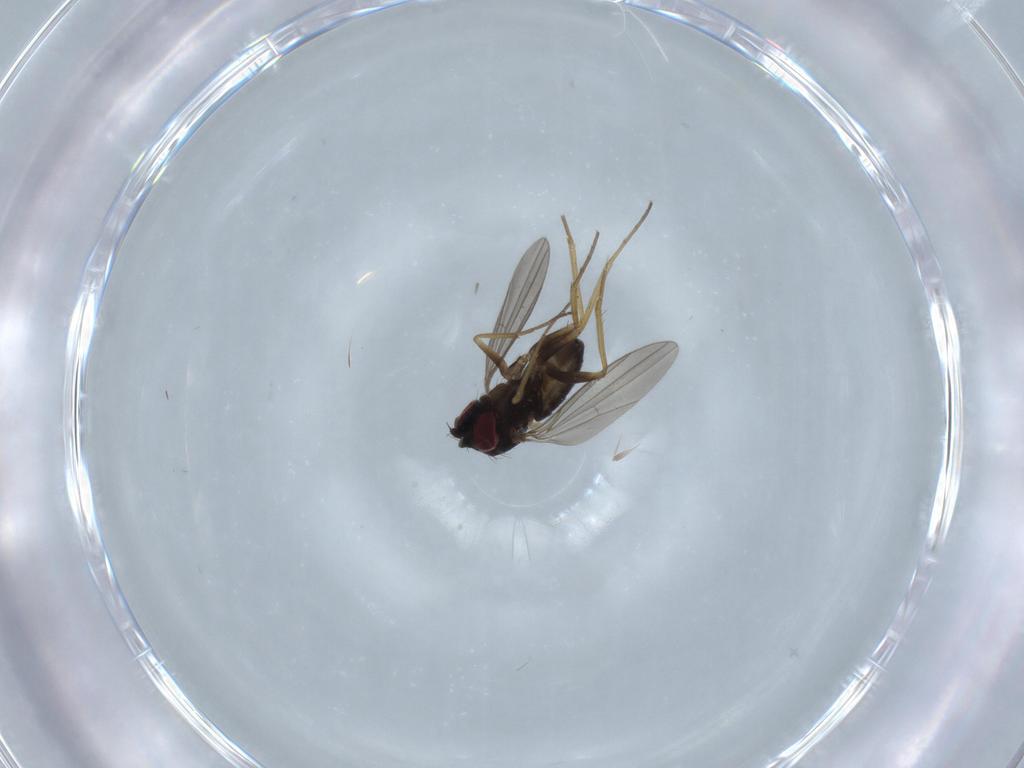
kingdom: Animalia
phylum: Arthropoda
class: Insecta
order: Diptera
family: Dolichopodidae
